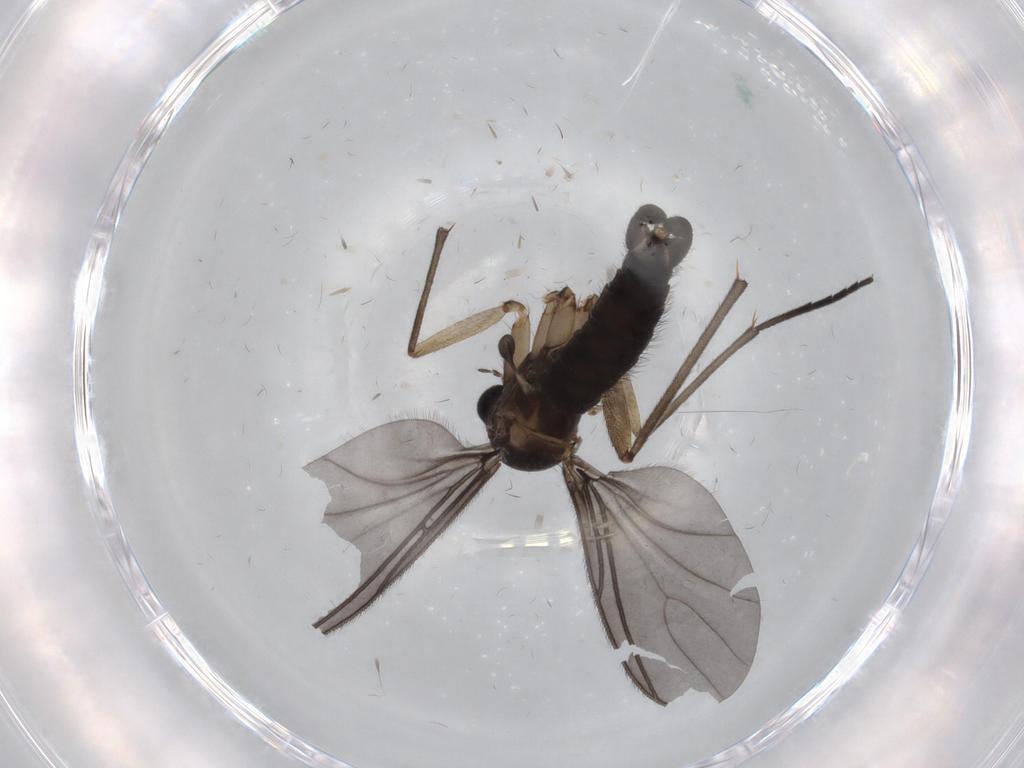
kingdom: Animalia
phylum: Arthropoda
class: Insecta
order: Diptera
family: Sciaridae
